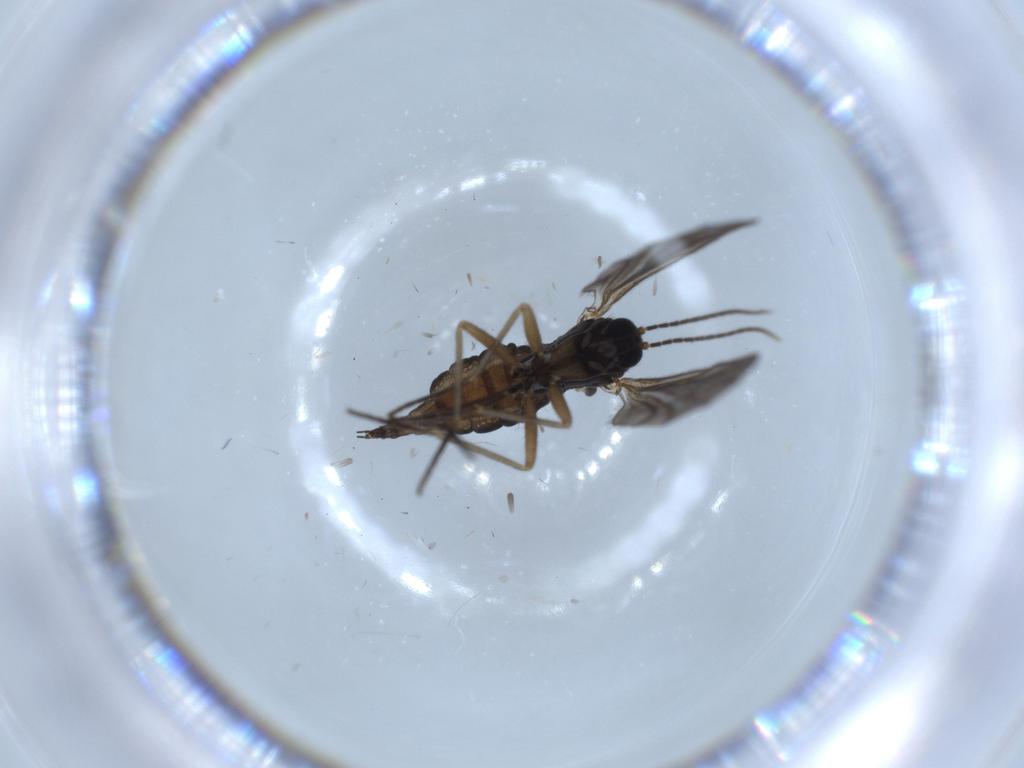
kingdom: Animalia
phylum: Arthropoda
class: Insecta
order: Diptera
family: Sciaridae
